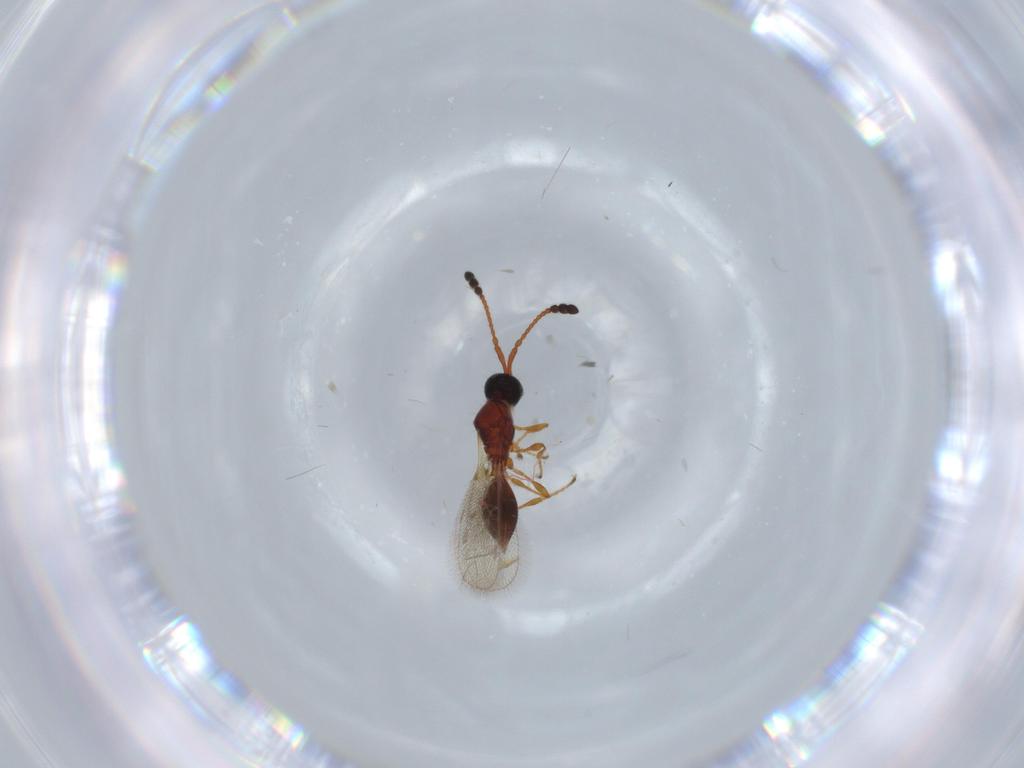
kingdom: Animalia
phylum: Arthropoda
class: Insecta
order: Hymenoptera
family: Diapriidae
